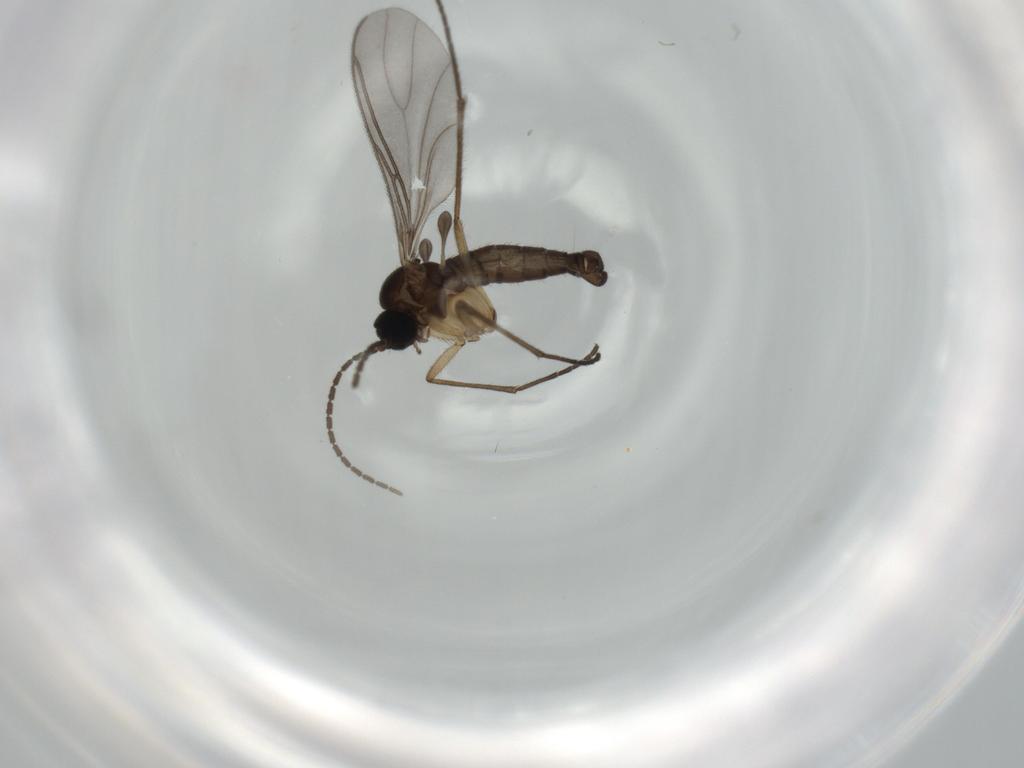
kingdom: Animalia
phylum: Arthropoda
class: Insecta
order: Diptera
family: Sciaridae
